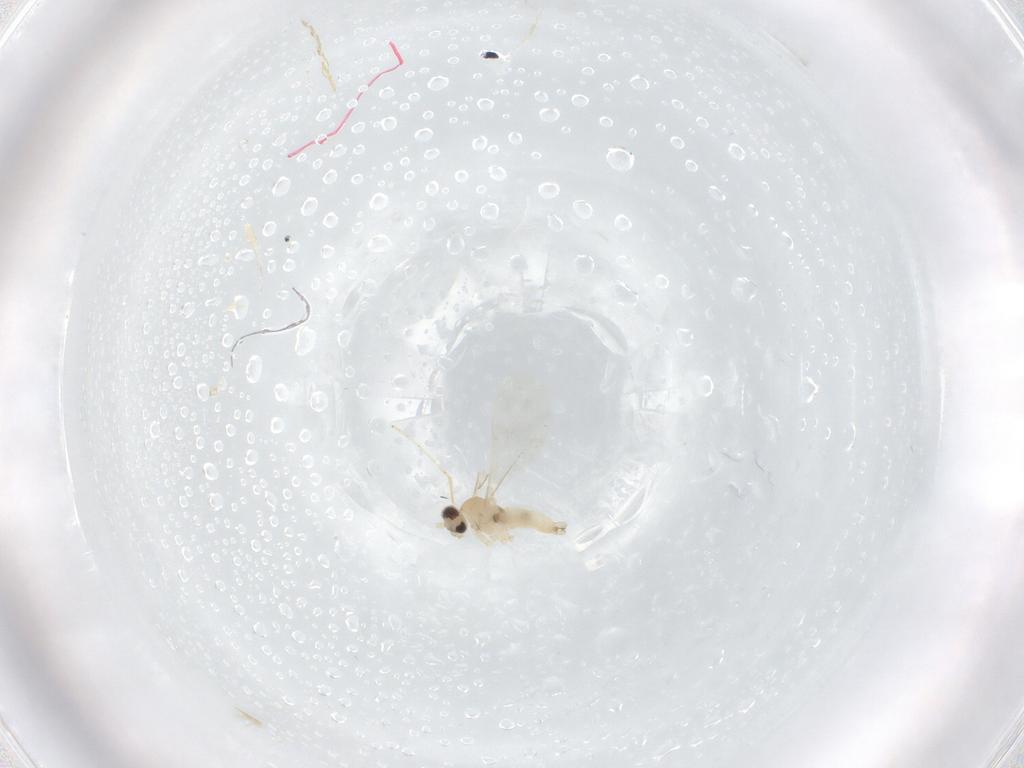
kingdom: Animalia
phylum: Arthropoda
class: Insecta
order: Diptera
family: Cecidomyiidae
